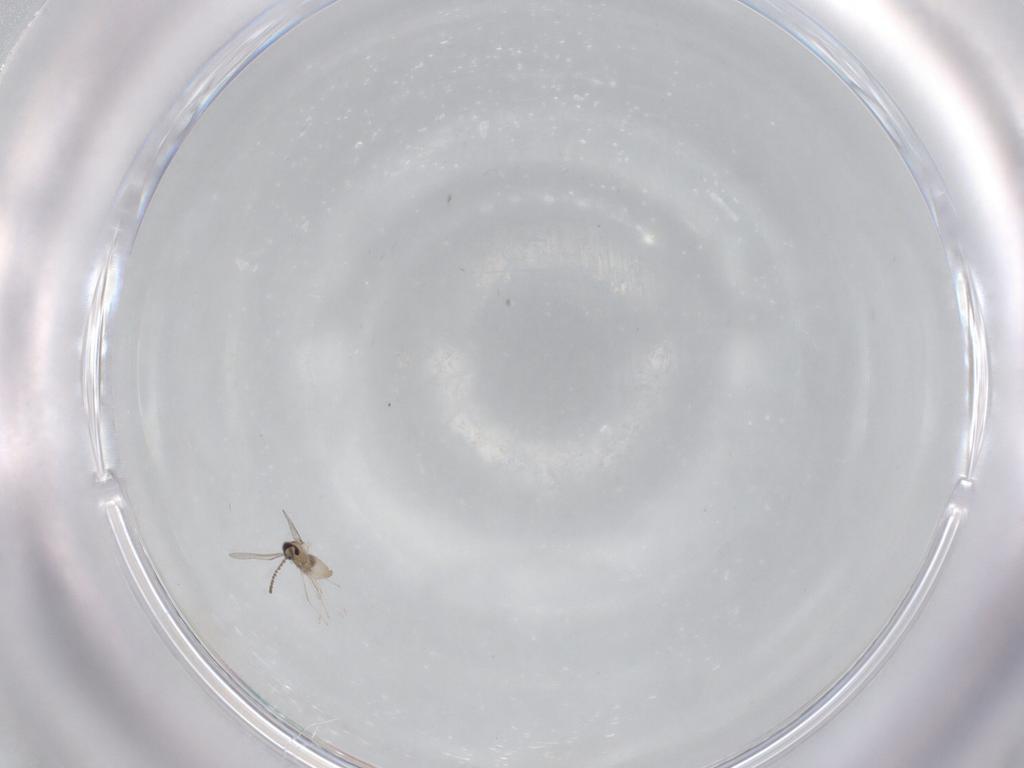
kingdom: Animalia
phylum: Arthropoda
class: Insecta
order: Diptera
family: Cecidomyiidae
